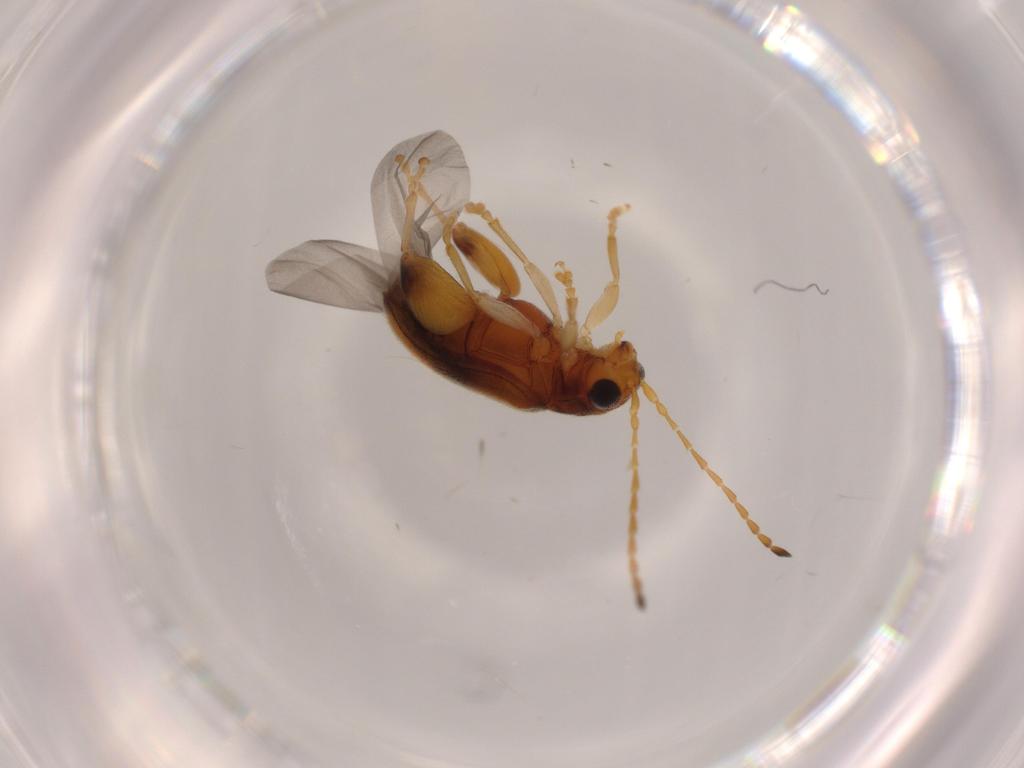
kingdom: Animalia
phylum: Arthropoda
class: Insecta
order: Coleoptera
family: Chrysomelidae
